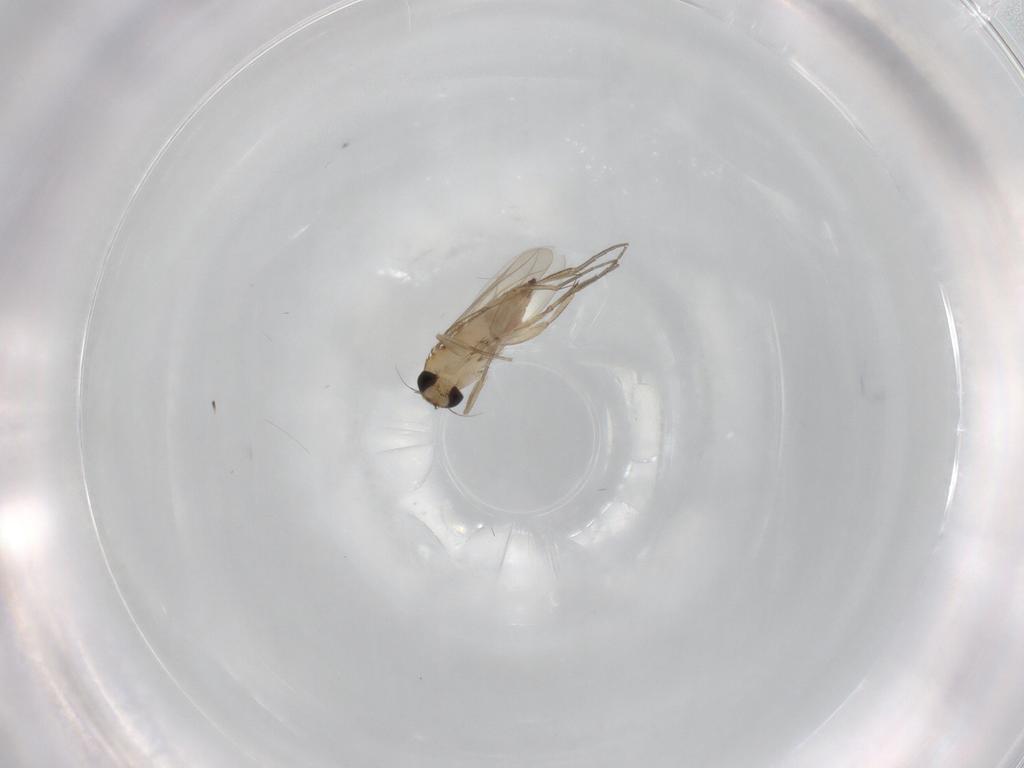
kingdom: Animalia
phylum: Arthropoda
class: Insecta
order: Diptera
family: Phoridae
